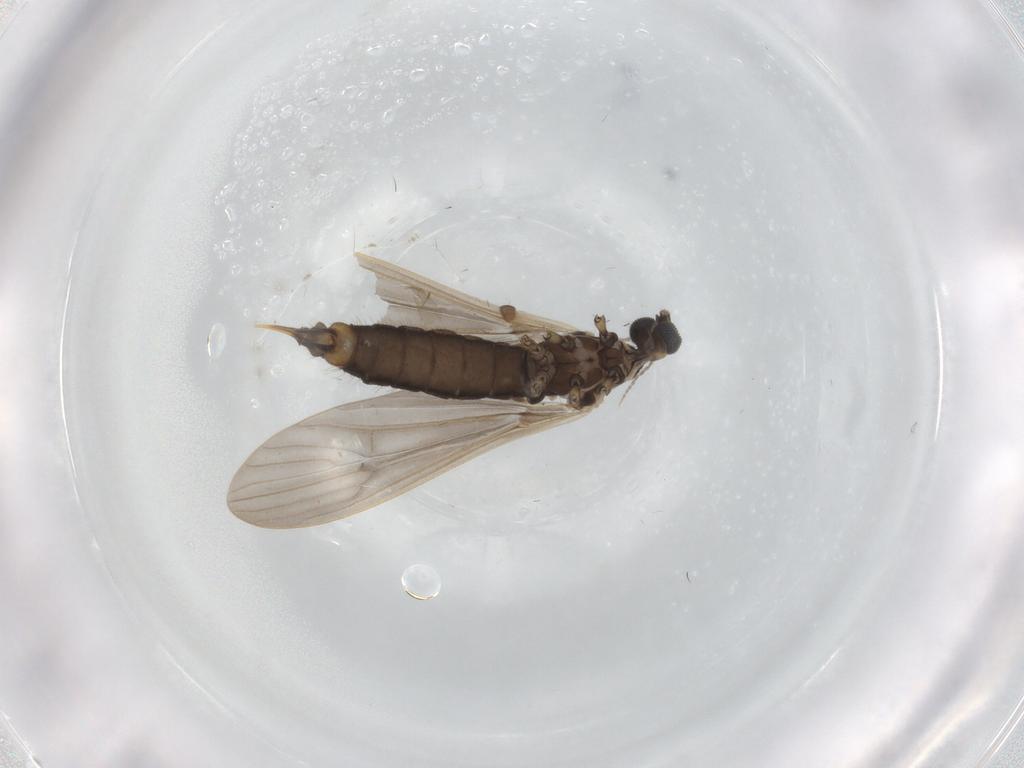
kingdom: Animalia
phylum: Arthropoda
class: Insecta
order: Diptera
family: Limoniidae
